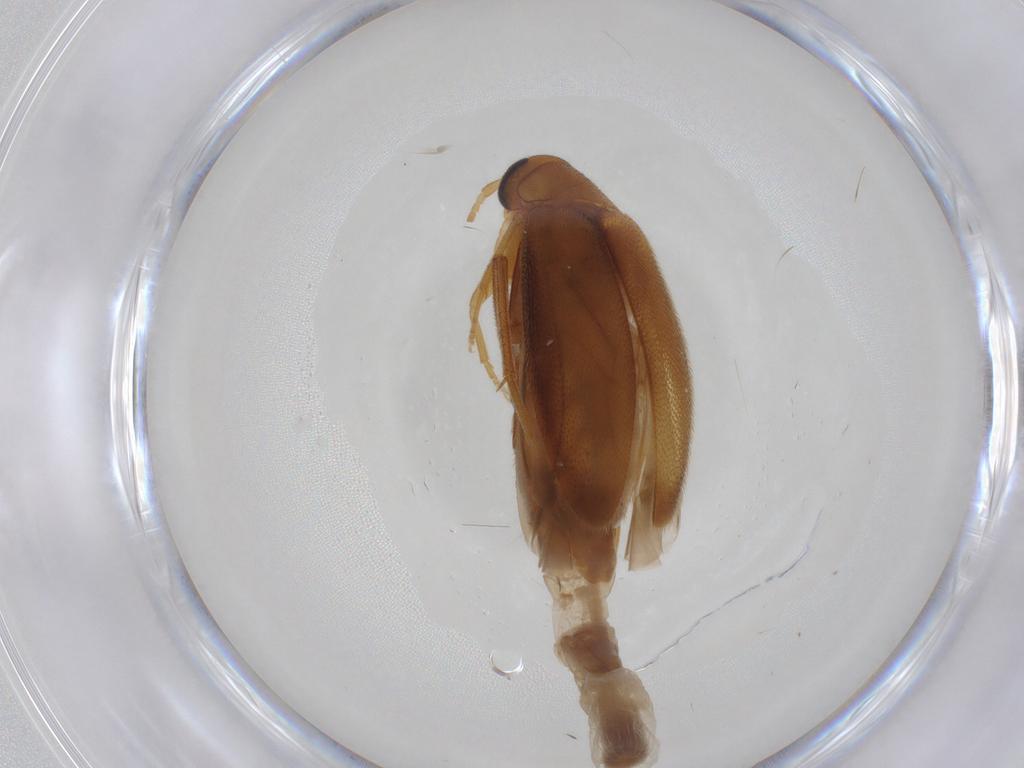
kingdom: Animalia
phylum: Arthropoda
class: Insecta
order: Coleoptera
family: Scraptiidae
